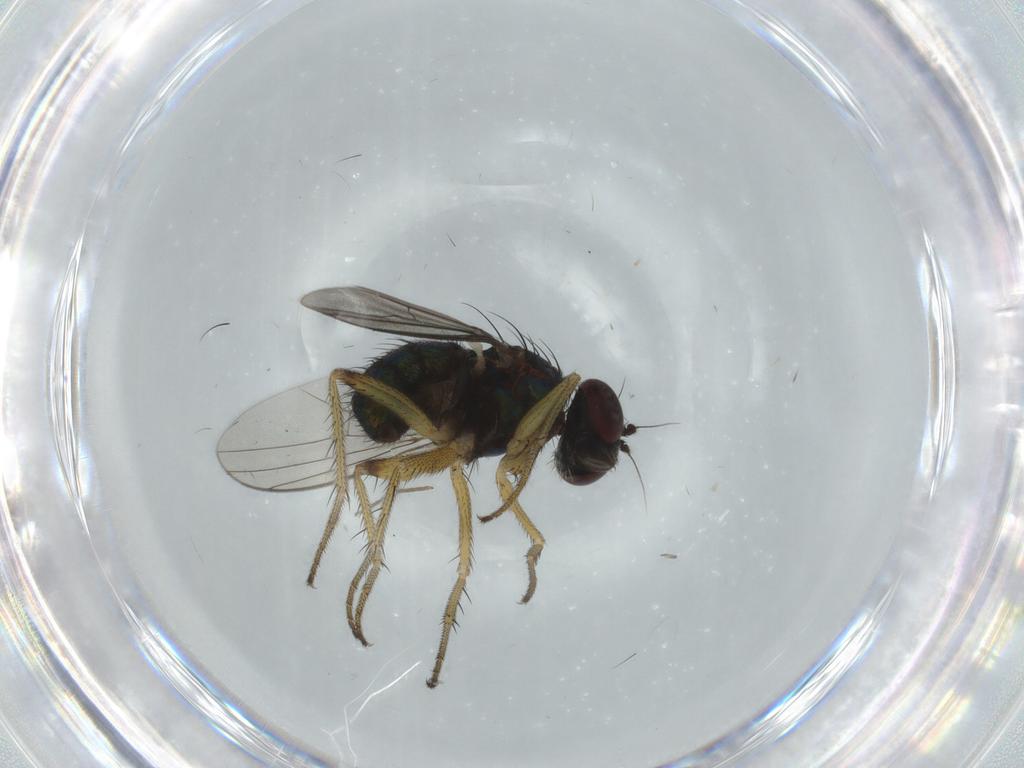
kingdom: Animalia
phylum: Arthropoda
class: Insecta
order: Diptera
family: Dolichopodidae
